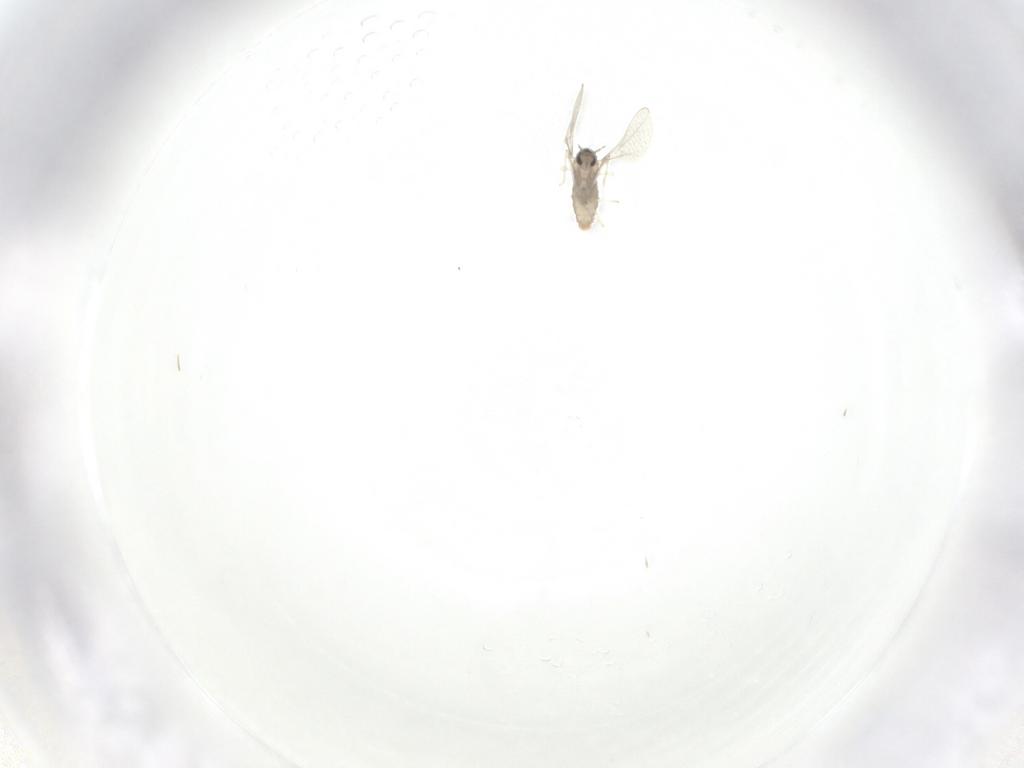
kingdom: Animalia
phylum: Arthropoda
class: Insecta
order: Diptera
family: Cecidomyiidae
